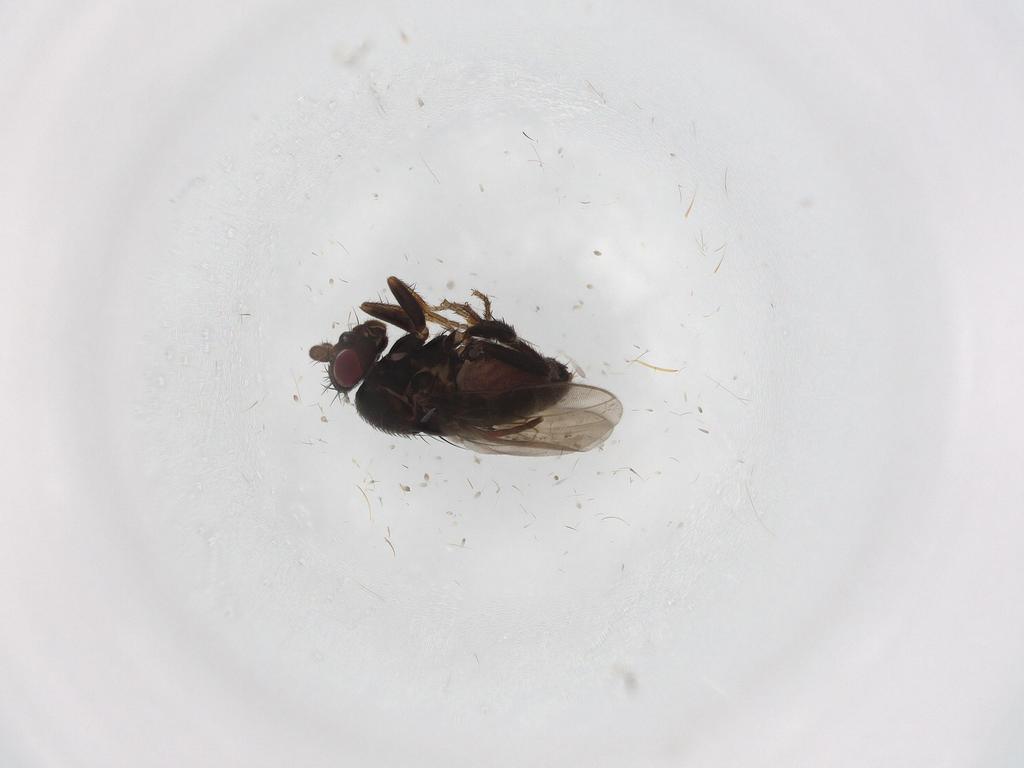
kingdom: Animalia
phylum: Arthropoda
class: Insecta
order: Diptera
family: Sphaeroceridae
